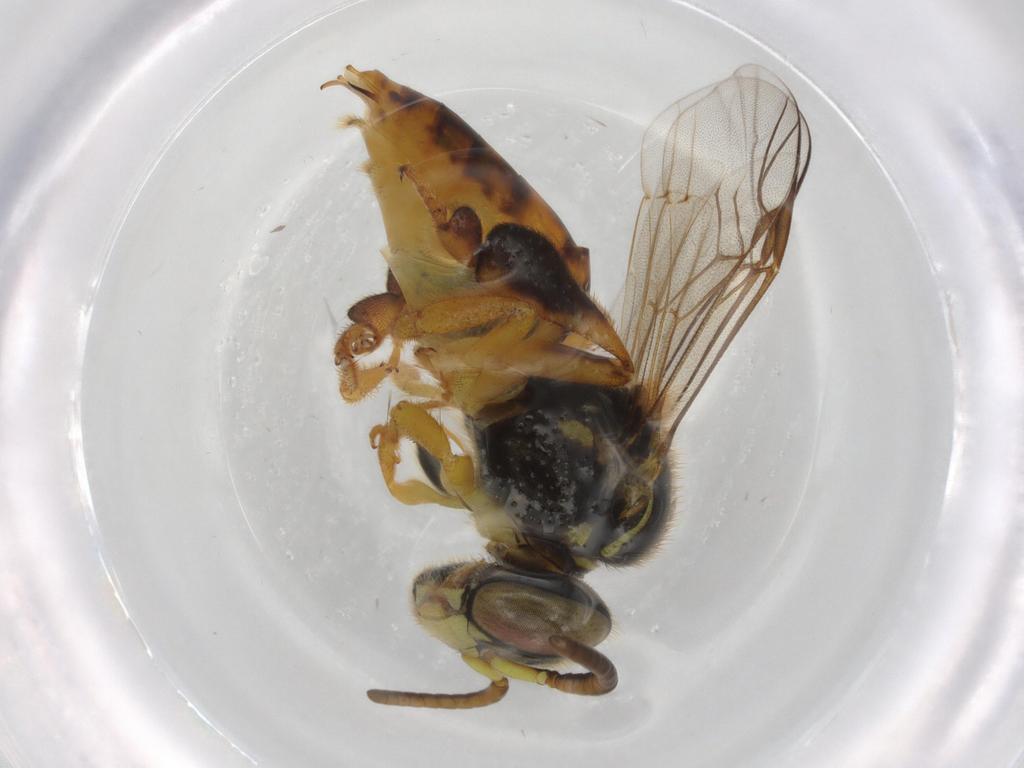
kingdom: Animalia
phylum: Arthropoda
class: Insecta
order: Hymenoptera
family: Apidae
